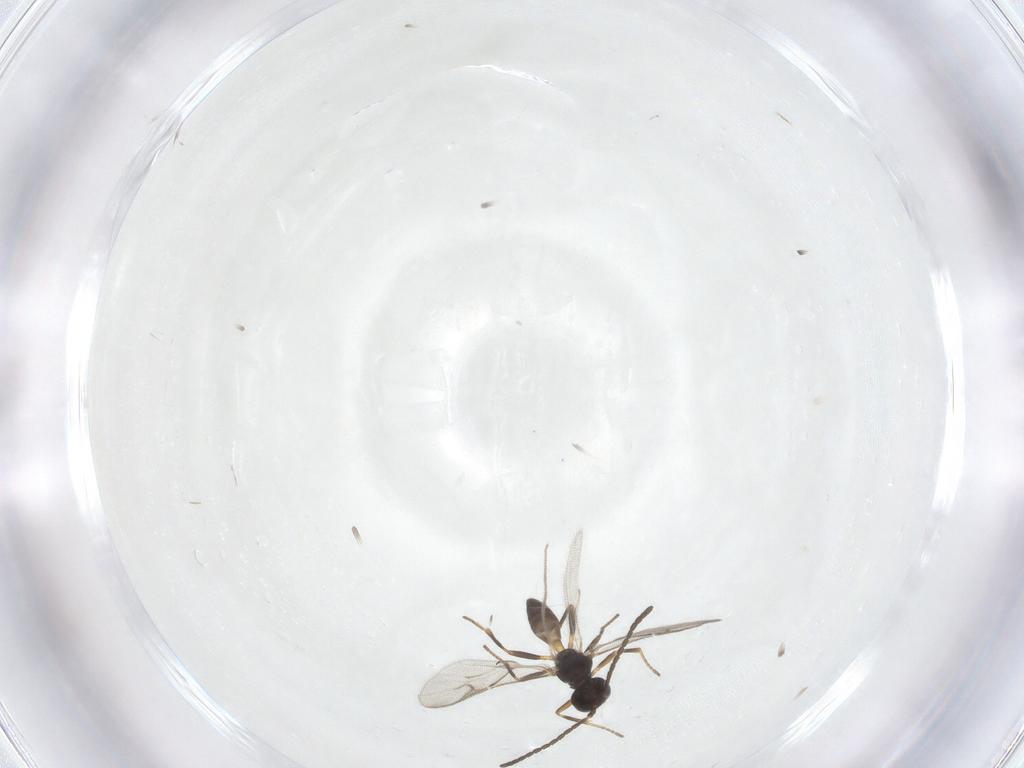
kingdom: Animalia
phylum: Arthropoda
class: Insecta
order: Hymenoptera
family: Braconidae
